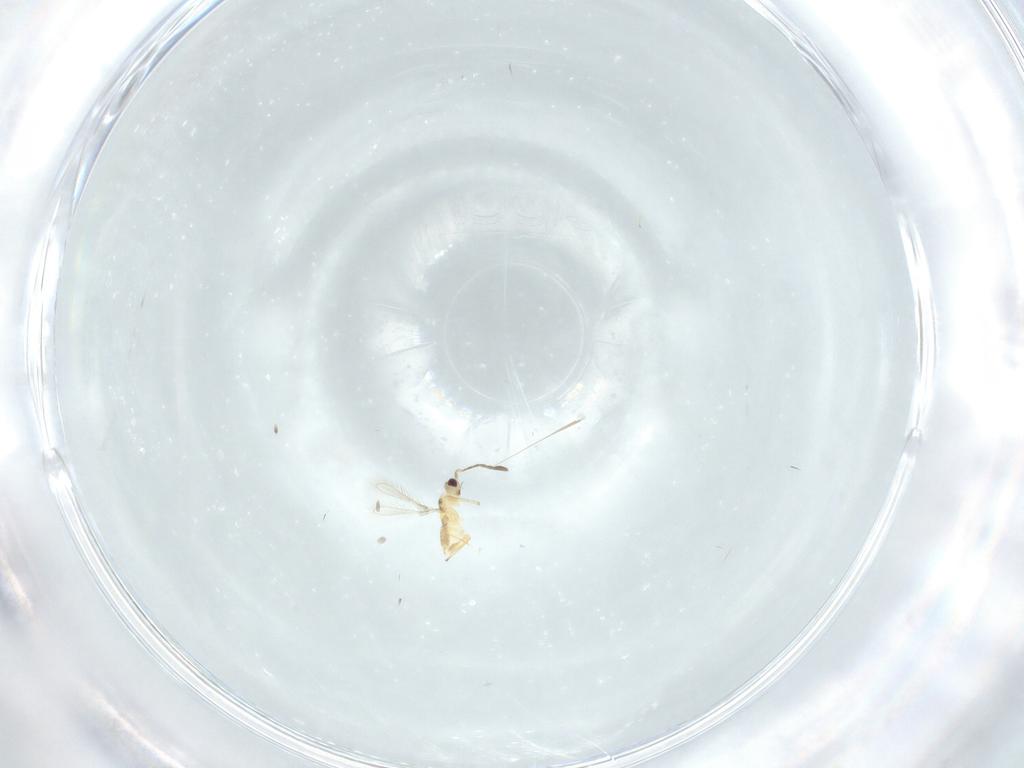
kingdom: Animalia
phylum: Arthropoda
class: Insecta
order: Hymenoptera
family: Mymaridae
